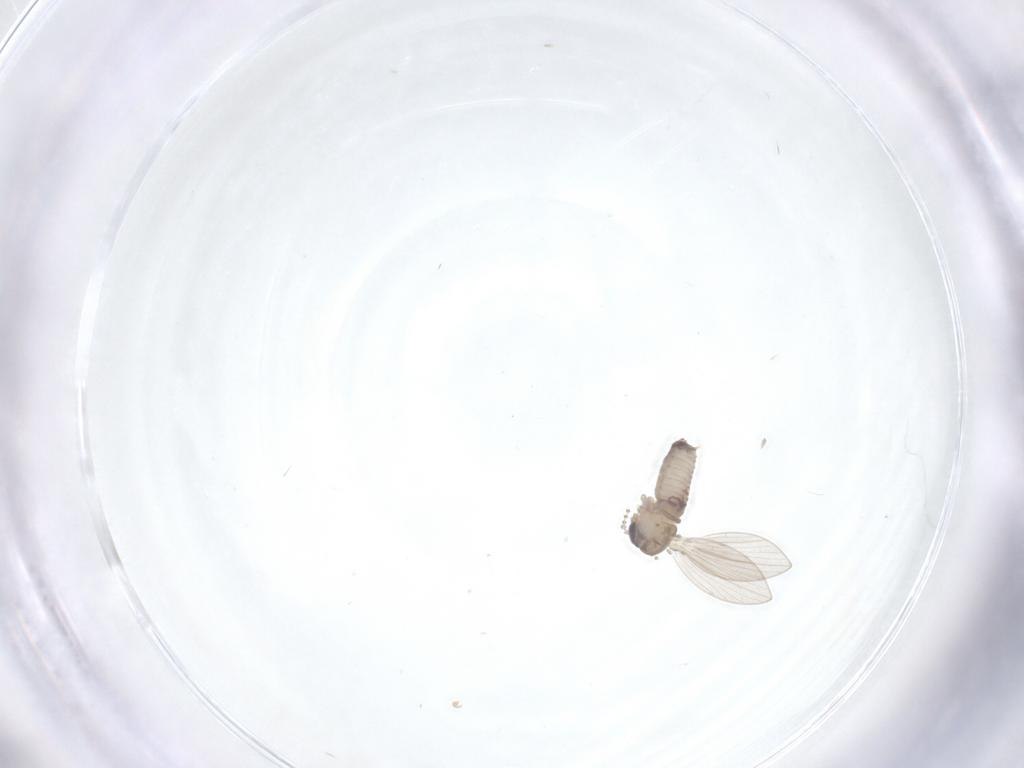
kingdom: Animalia
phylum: Arthropoda
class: Insecta
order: Diptera
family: Psychodidae
